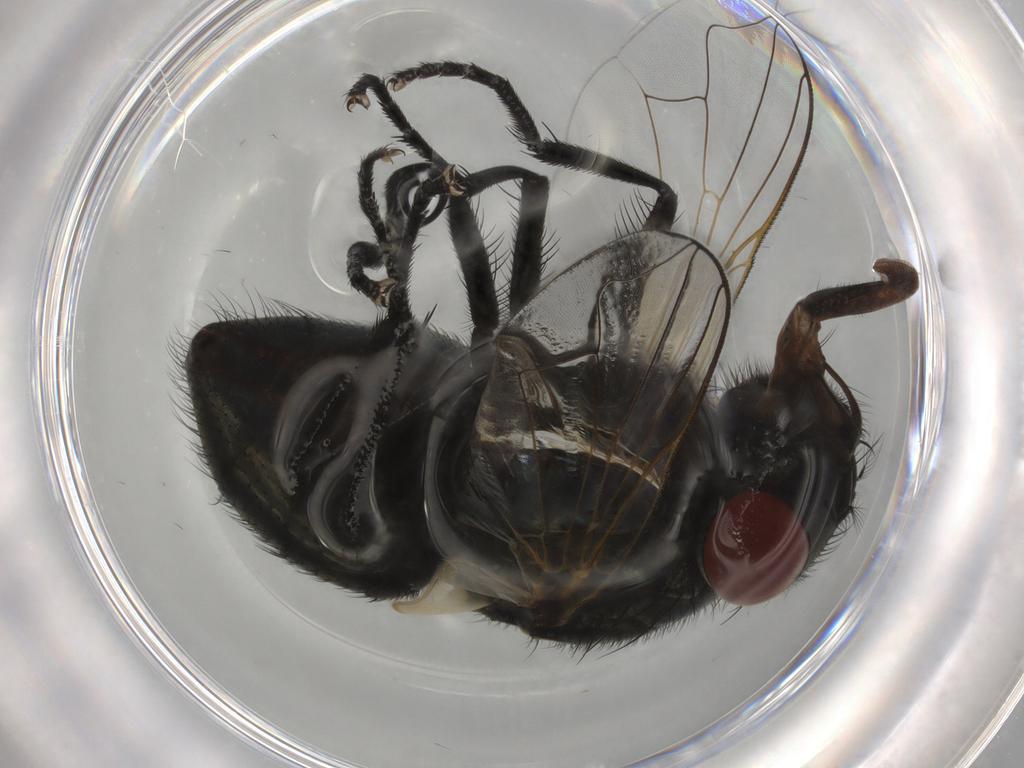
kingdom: Animalia
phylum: Arthropoda
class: Insecta
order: Diptera
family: Muscidae
